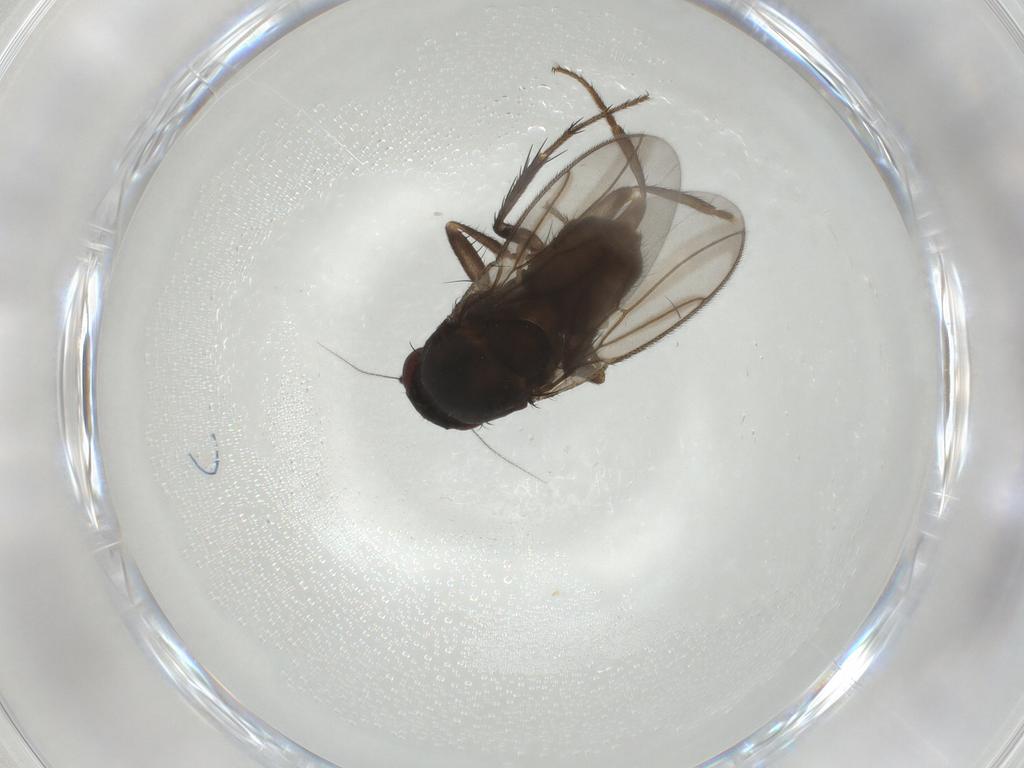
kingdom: Animalia
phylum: Arthropoda
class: Insecta
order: Diptera
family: Sphaeroceridae
